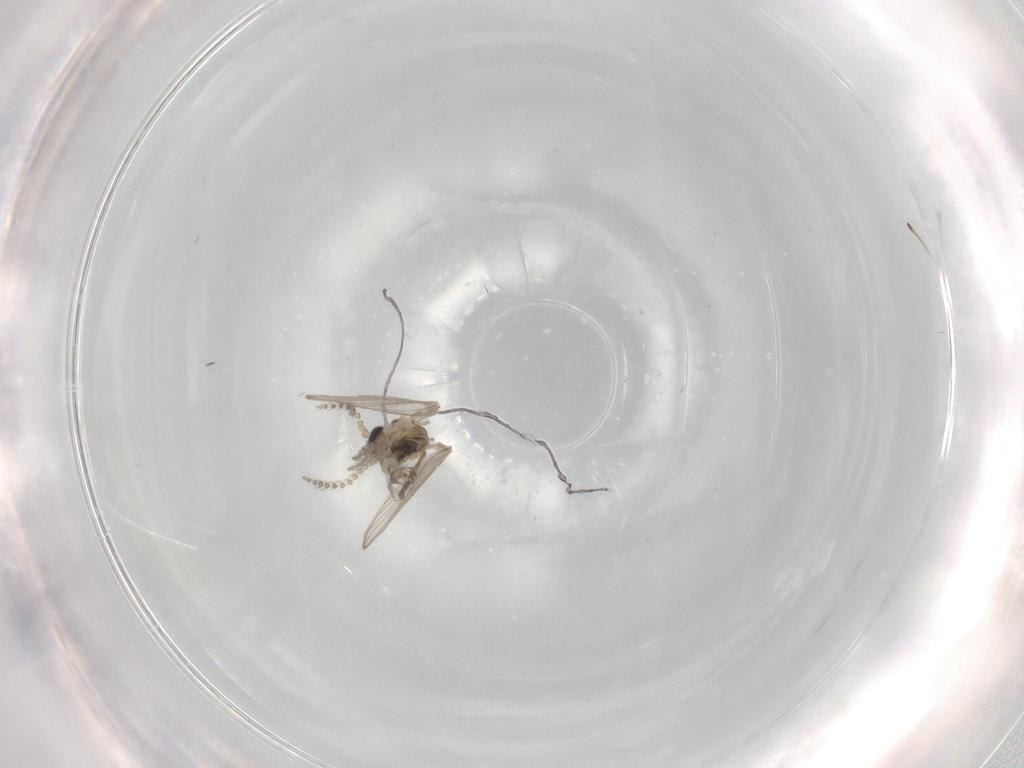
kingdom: Animalia
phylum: Arthropoda
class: Insecta
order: Diptera
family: Psychodidae
